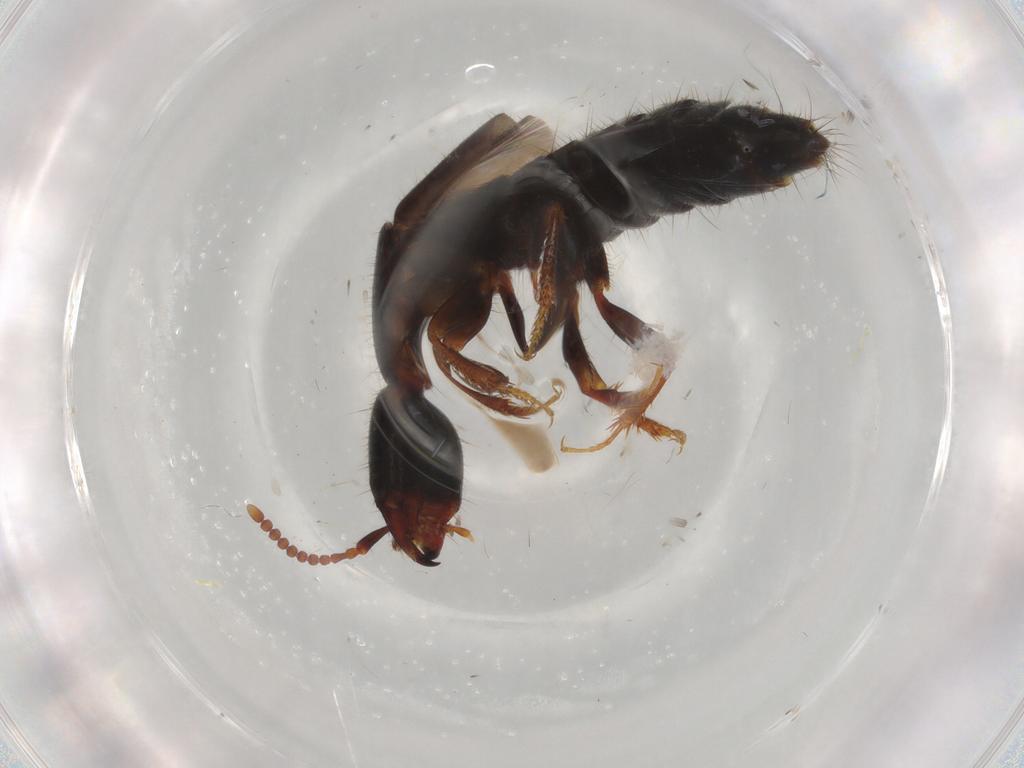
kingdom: Animalia
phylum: Arthropoda
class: Insecta
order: Coleoptera
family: Staphylinidae
